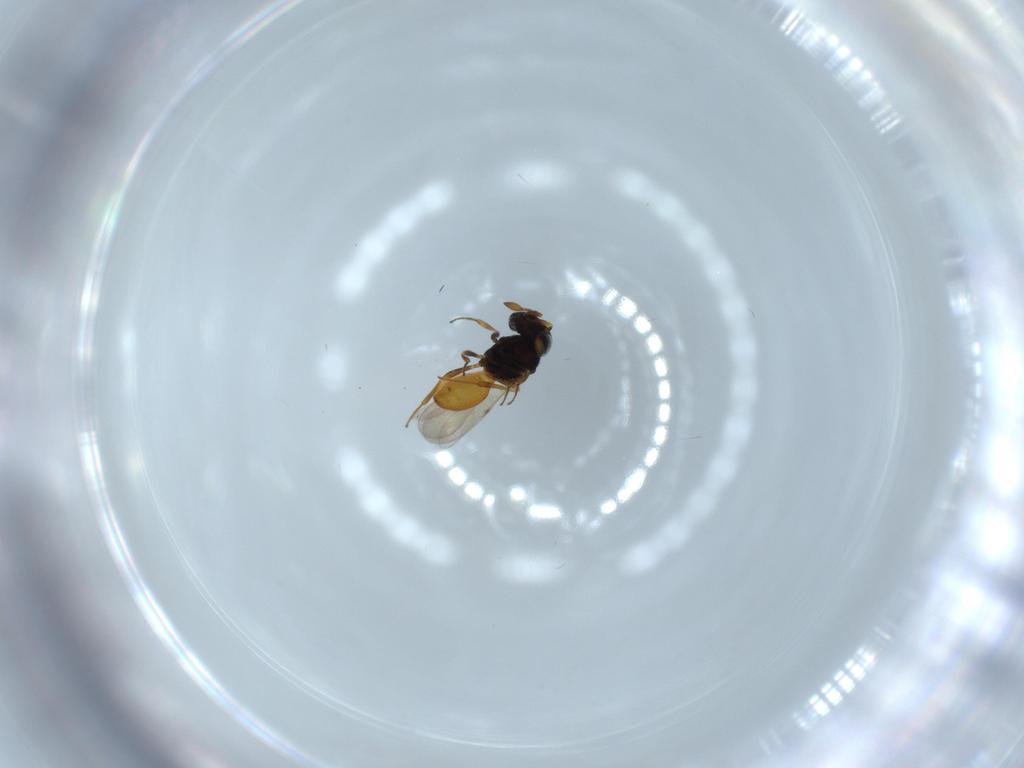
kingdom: Animalia
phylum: Arthropoda
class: Insecta
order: Hymenoptera
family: Scelionidae
